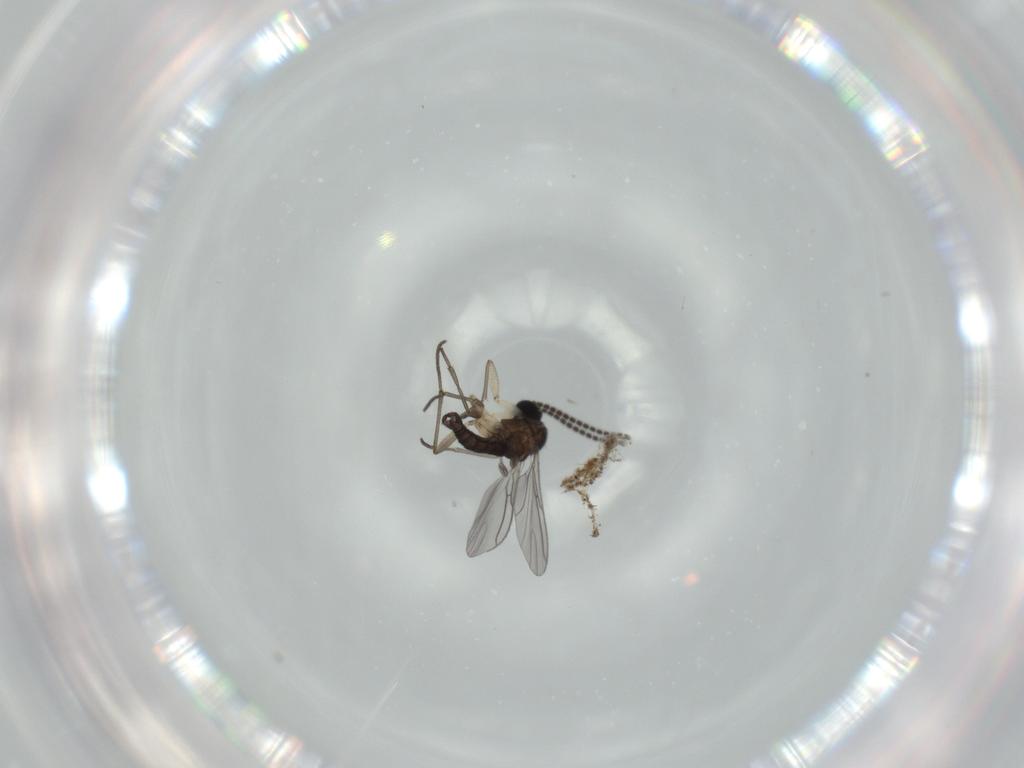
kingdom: Animalia
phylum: Arthropoda
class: Insecta
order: Diptera
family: Sciaridae
